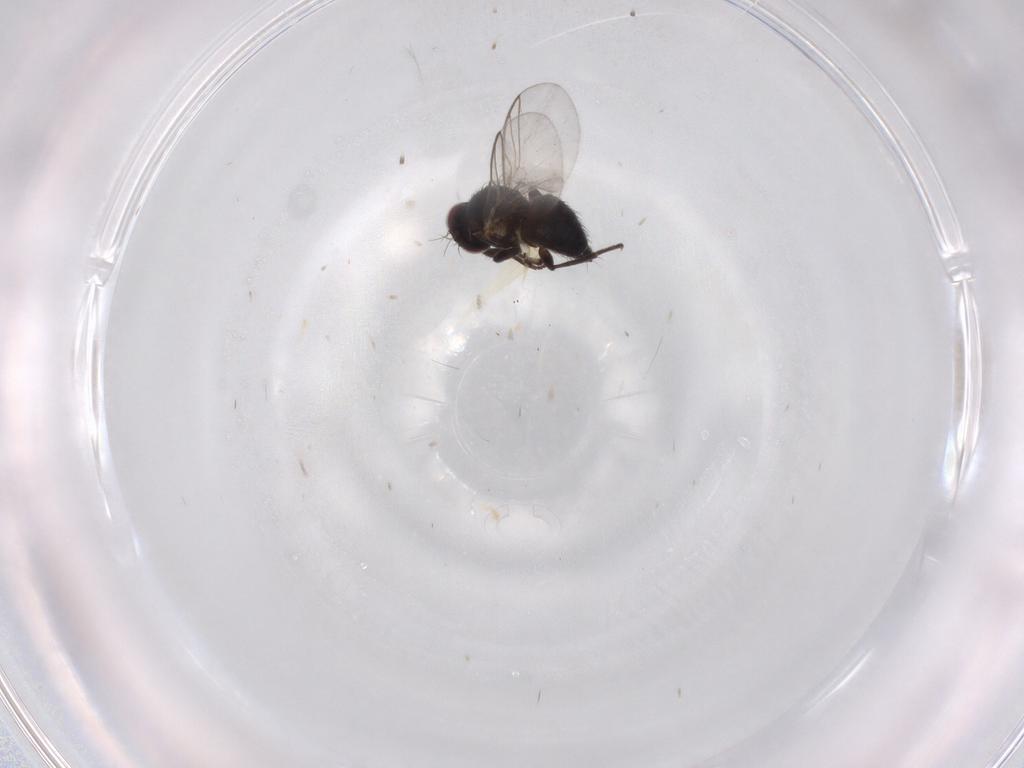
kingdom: Animalia
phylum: Arthropoda
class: Insecta
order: Diptera
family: Agromyzidae
